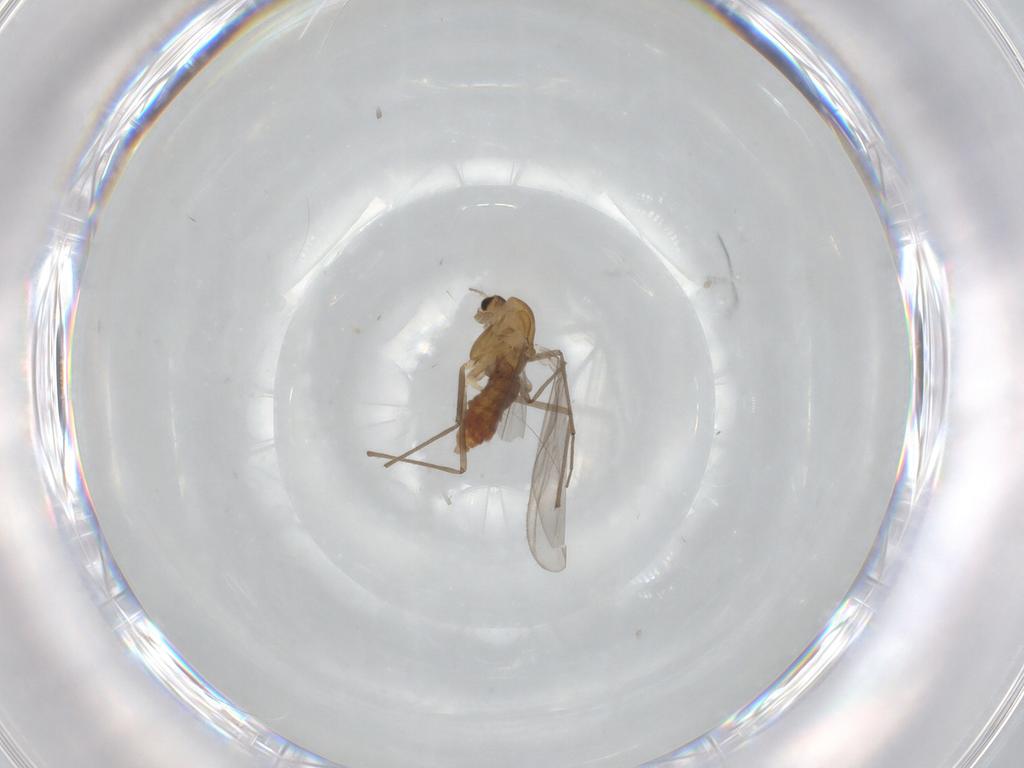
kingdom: Animalia
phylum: Arthropoda
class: Insecta
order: Diptera
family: Chironomidae
